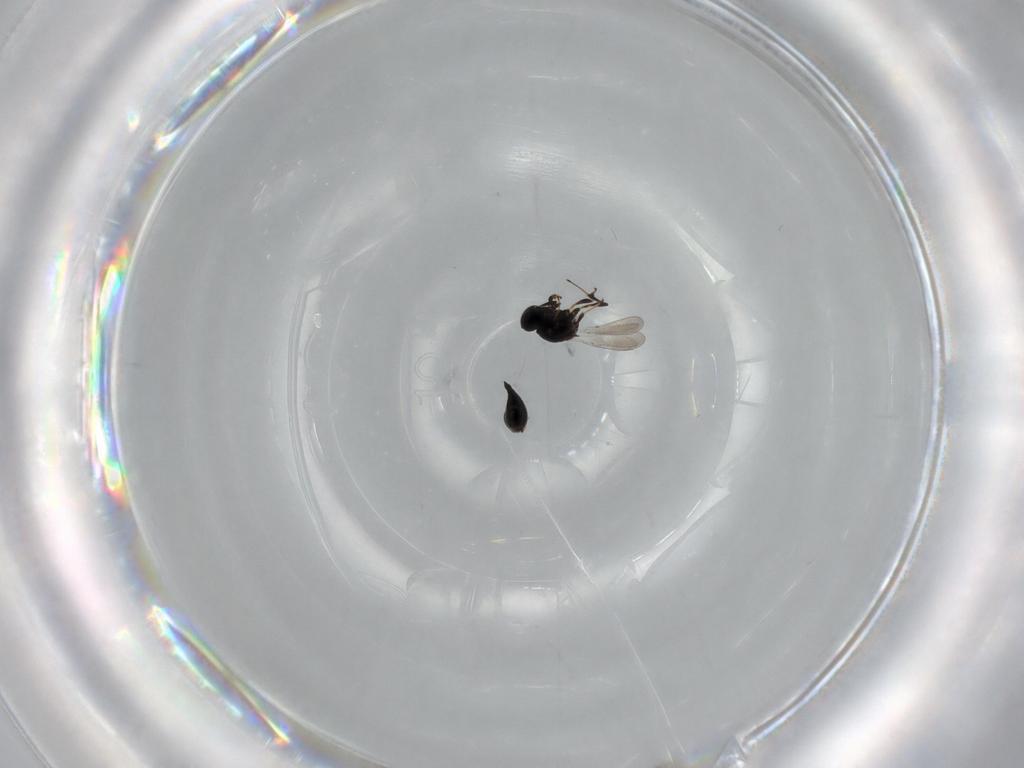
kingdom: Animalia
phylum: Arthropoda
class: Insecta
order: Hymenoptera
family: Platygastridae
